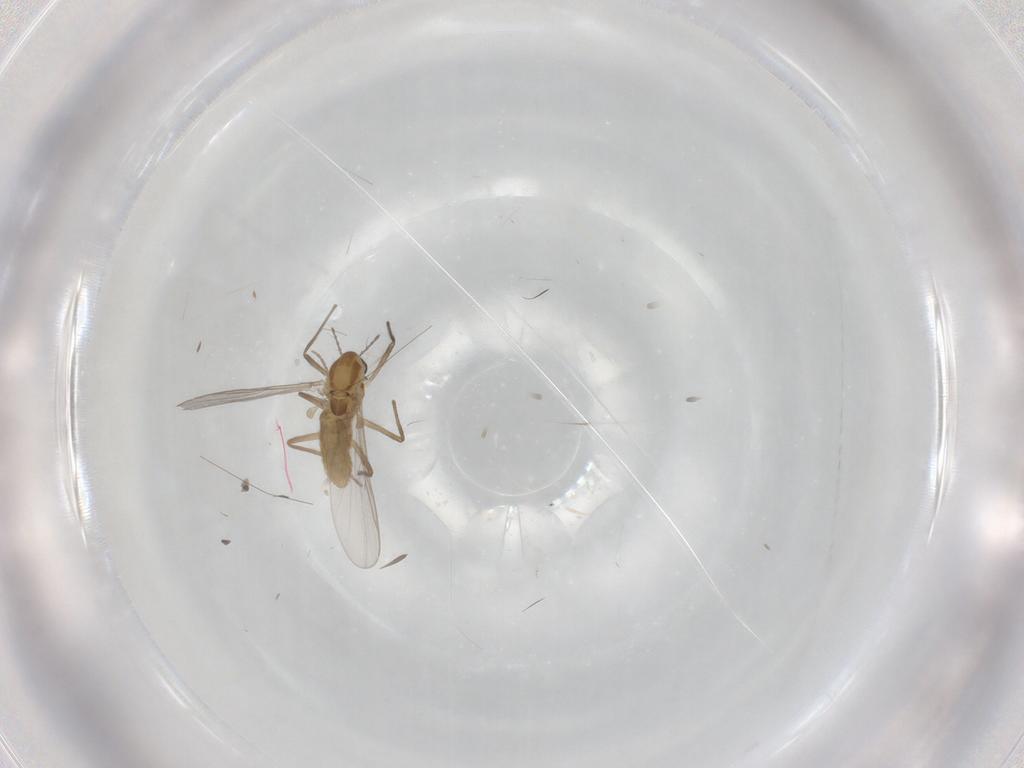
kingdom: Animalia
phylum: Arthropoda
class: Insecta
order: Diptera
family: Chironomidae
